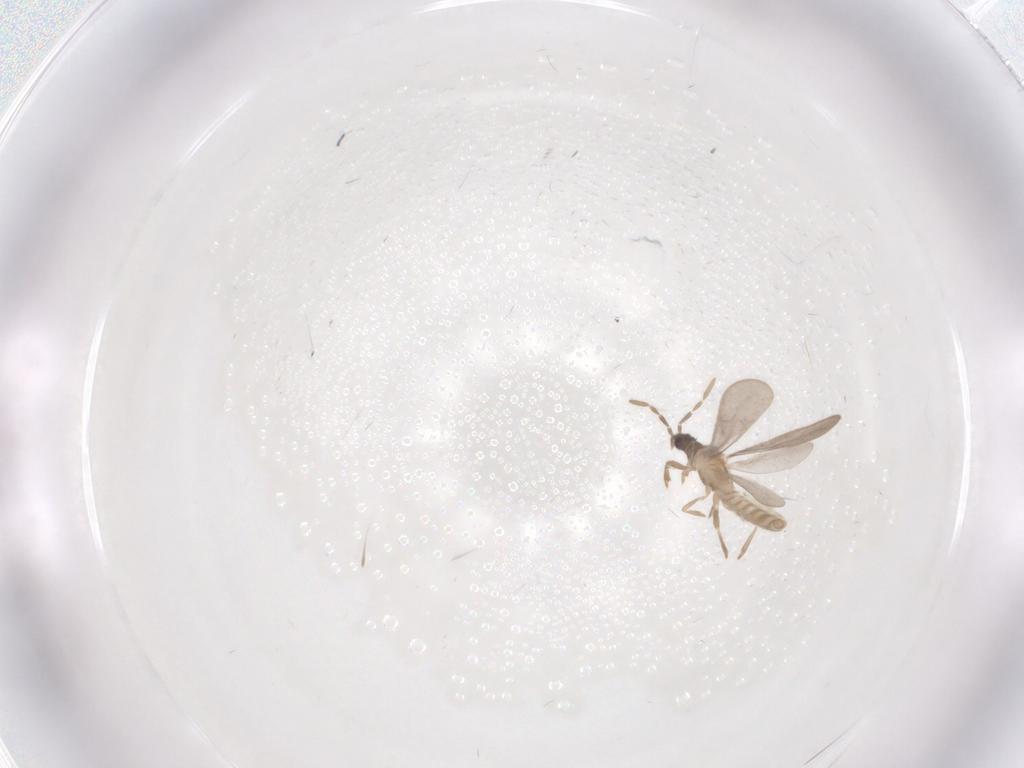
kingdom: Animalia
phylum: Arthropoda
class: Insecta
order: Hemiptera
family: Enicocephalidae
